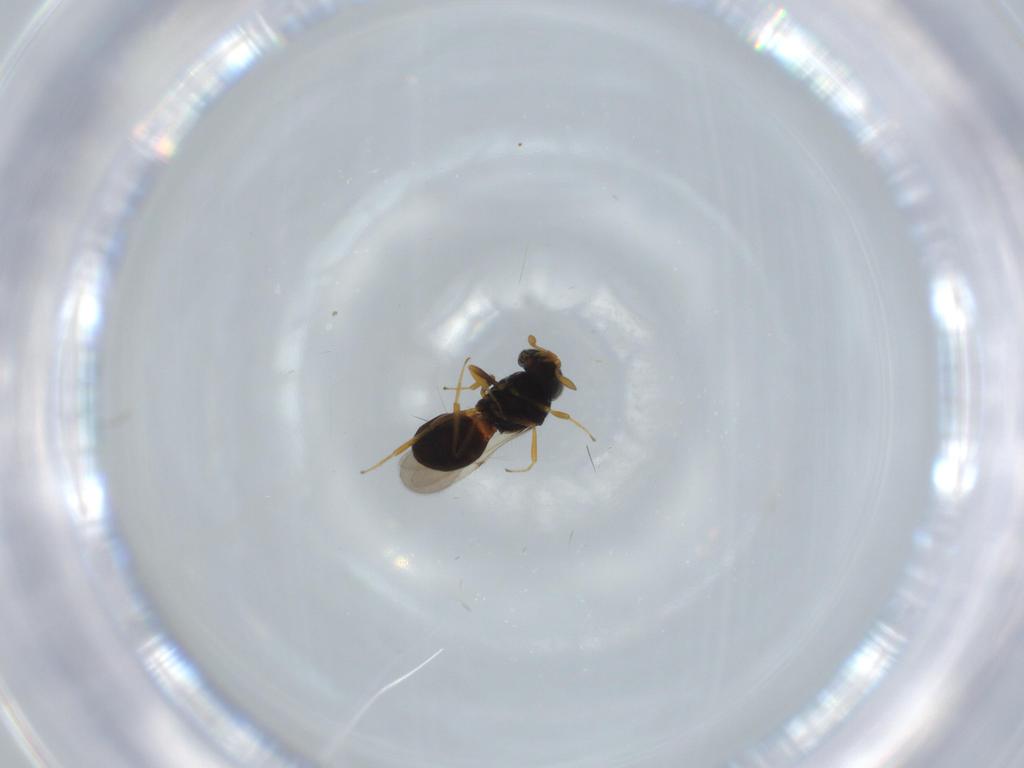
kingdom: Animalia
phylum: Arthropoda
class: Insecta
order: Hymenoptera
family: Scelionidae
